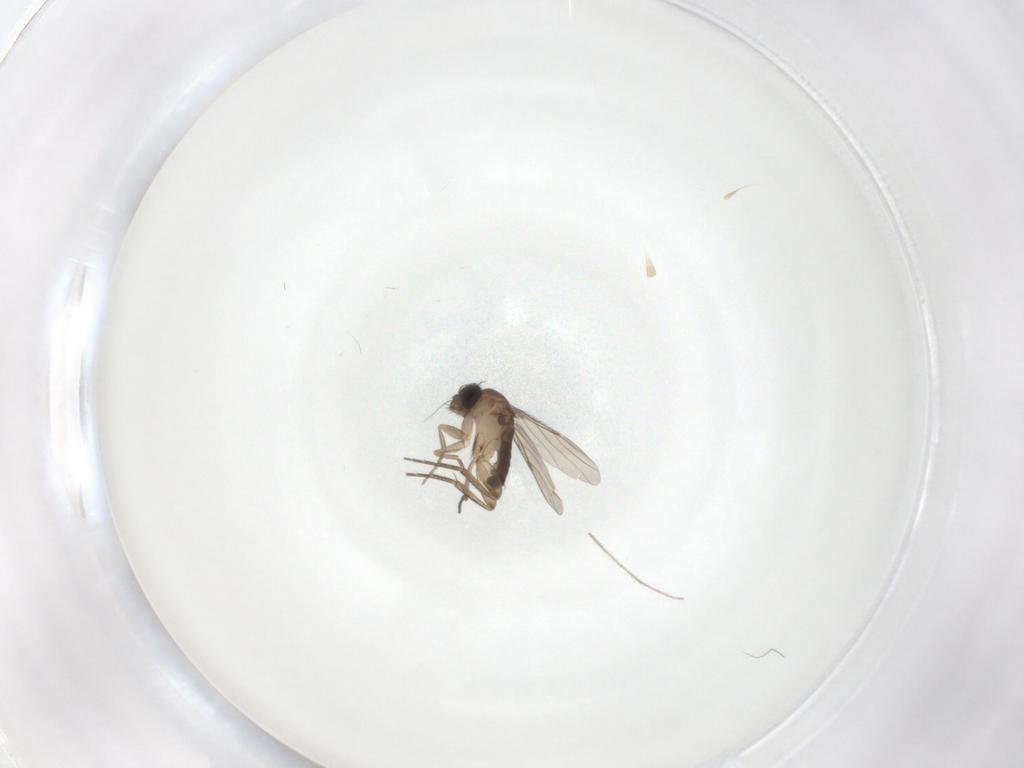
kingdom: Animalia
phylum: Arthropoda
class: Insecta
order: Diptera
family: Phoridae
